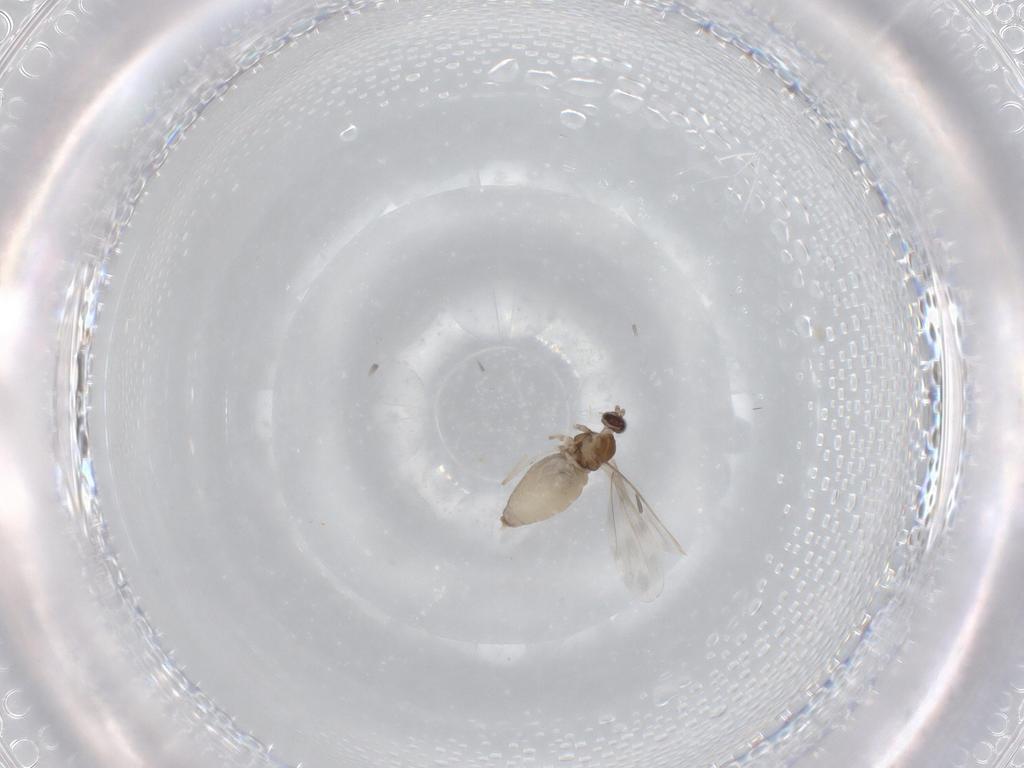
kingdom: Animalia
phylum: Arthropoda
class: Insecta
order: Diptera
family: Cecidomyiidae
